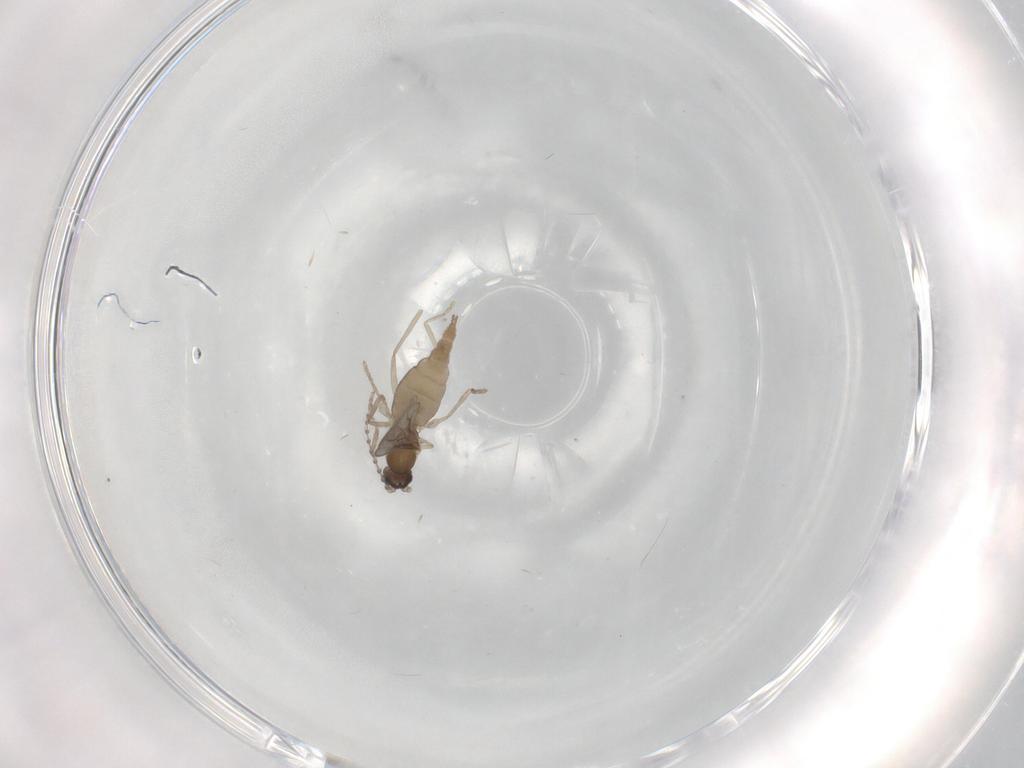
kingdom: Animalia
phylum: Arthropoda
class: Insecta
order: Diptera
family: Cecidomyiidae
